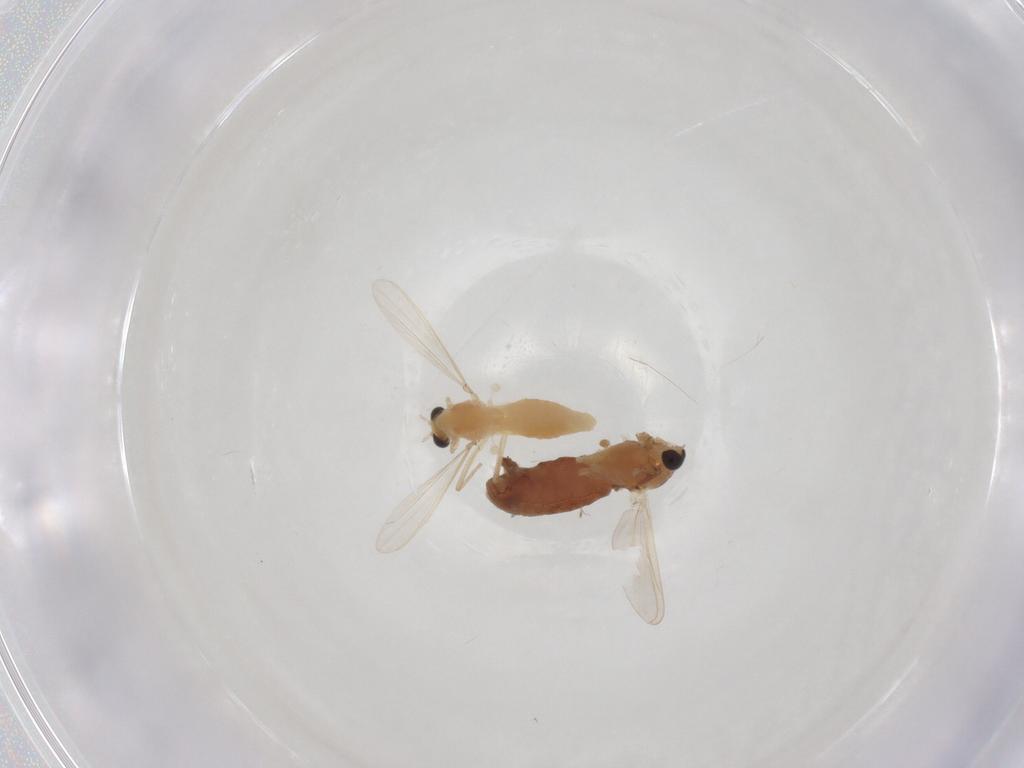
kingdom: Animalia
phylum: Arthropoda
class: Insecta
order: Diptera
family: Chironomidae
